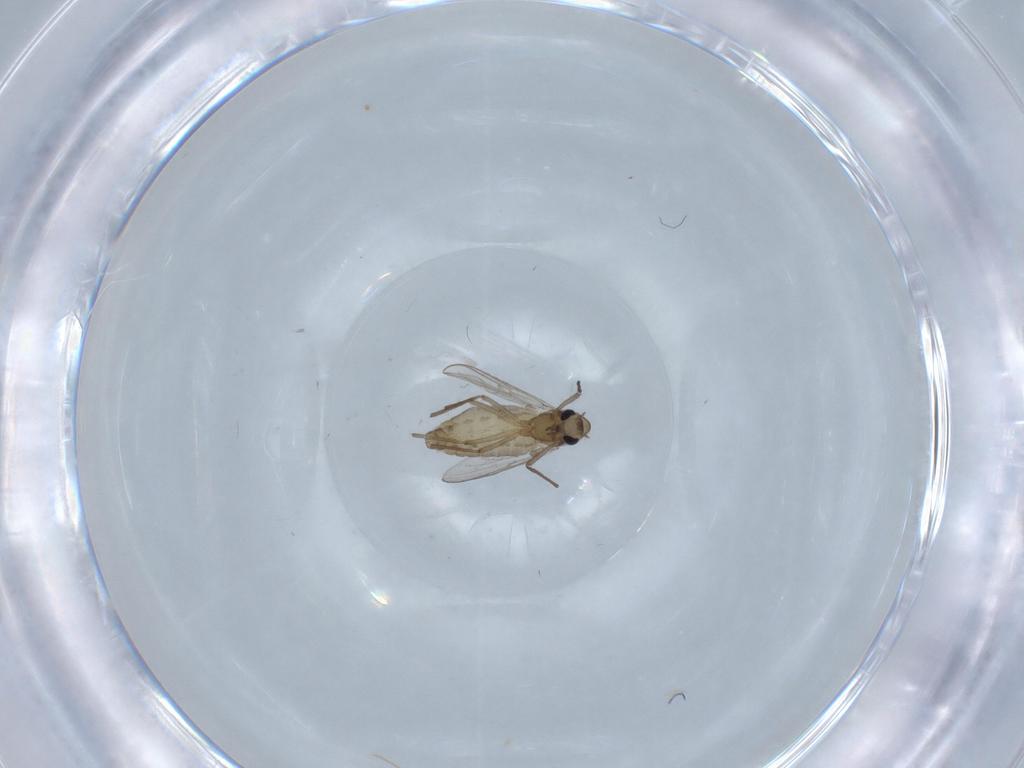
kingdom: Animalia
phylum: Arthropoda
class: Insecta
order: Diptera
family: Chironomidae
